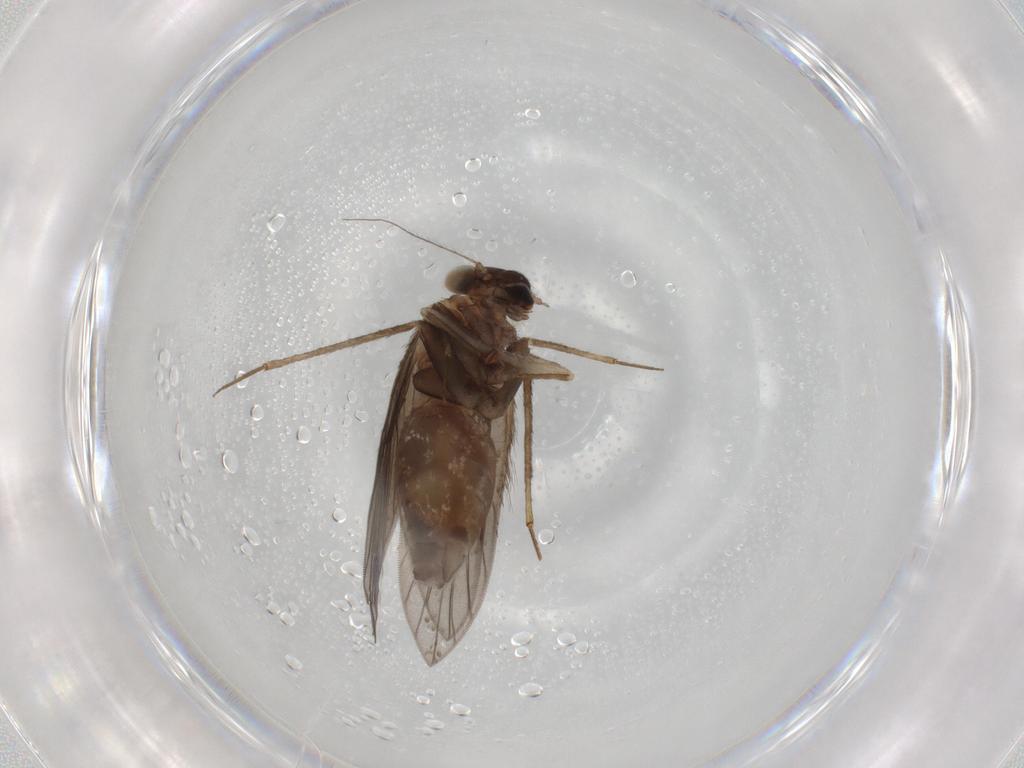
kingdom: Animalia
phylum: Arthropoda
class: Insecta
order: Psocodea
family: Lepidopsocidae
